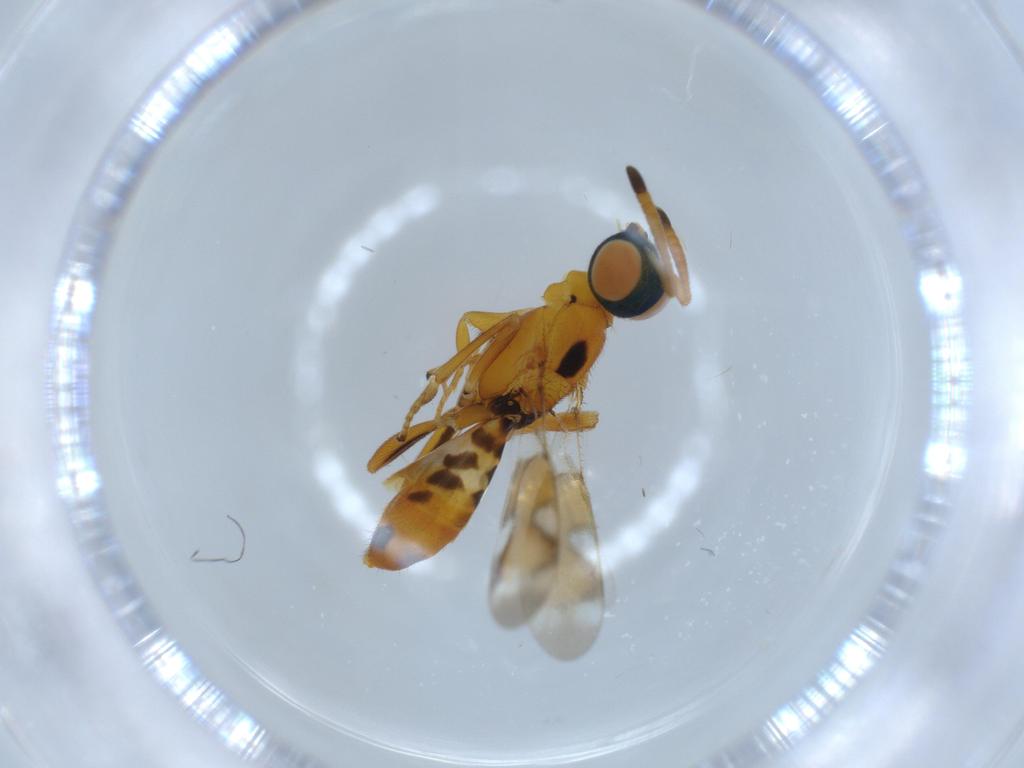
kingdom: Animalia
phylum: Arthropoda
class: Insecta
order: Hymenoptera
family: Eupelmidae
